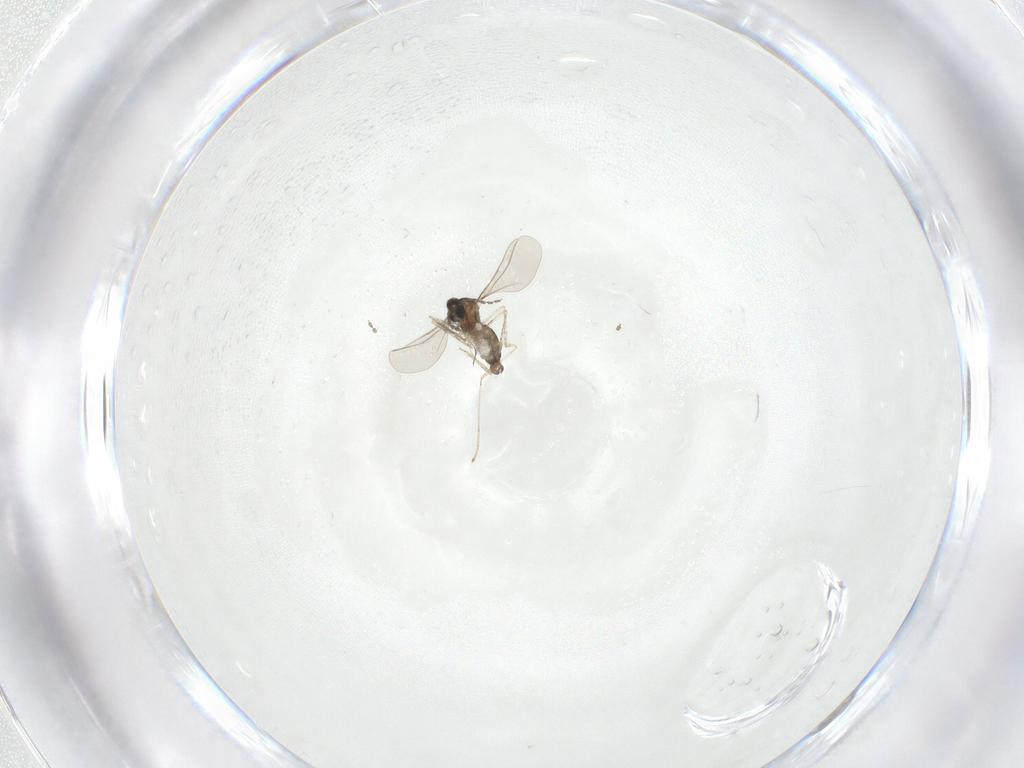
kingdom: Animalia
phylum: Arthropoda
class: Insecta
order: Diptera
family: Cecidomyiidae
